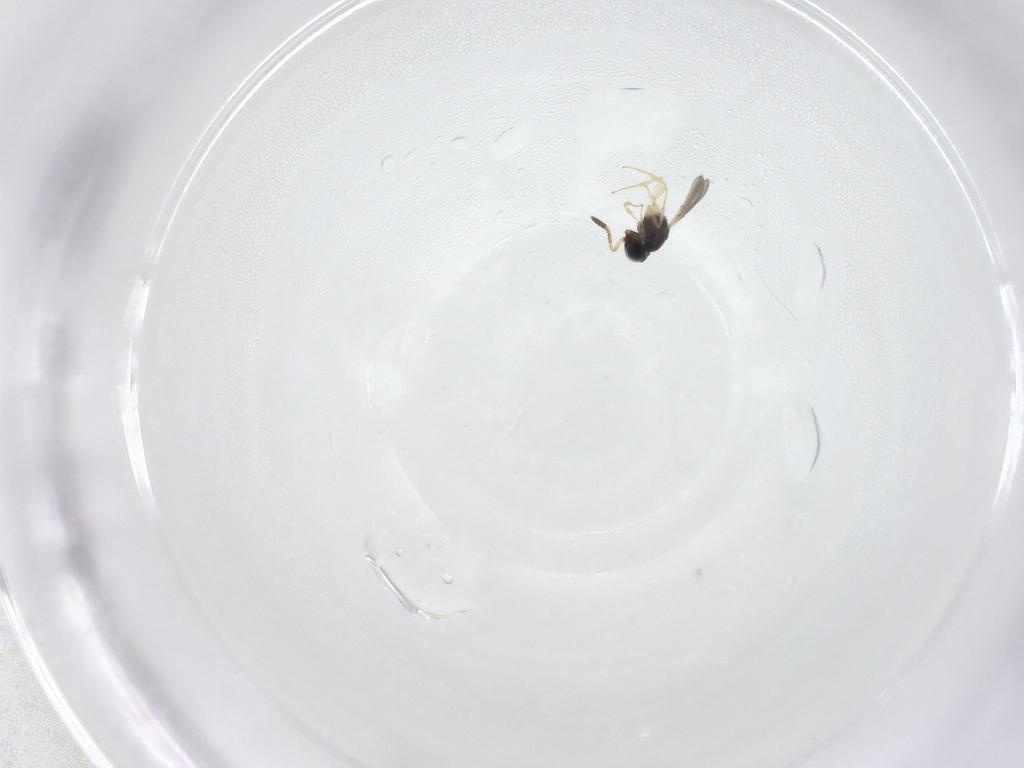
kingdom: Animalia
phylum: Arthropoda
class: Insecta
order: Hymenoptera
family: Scelionidae
